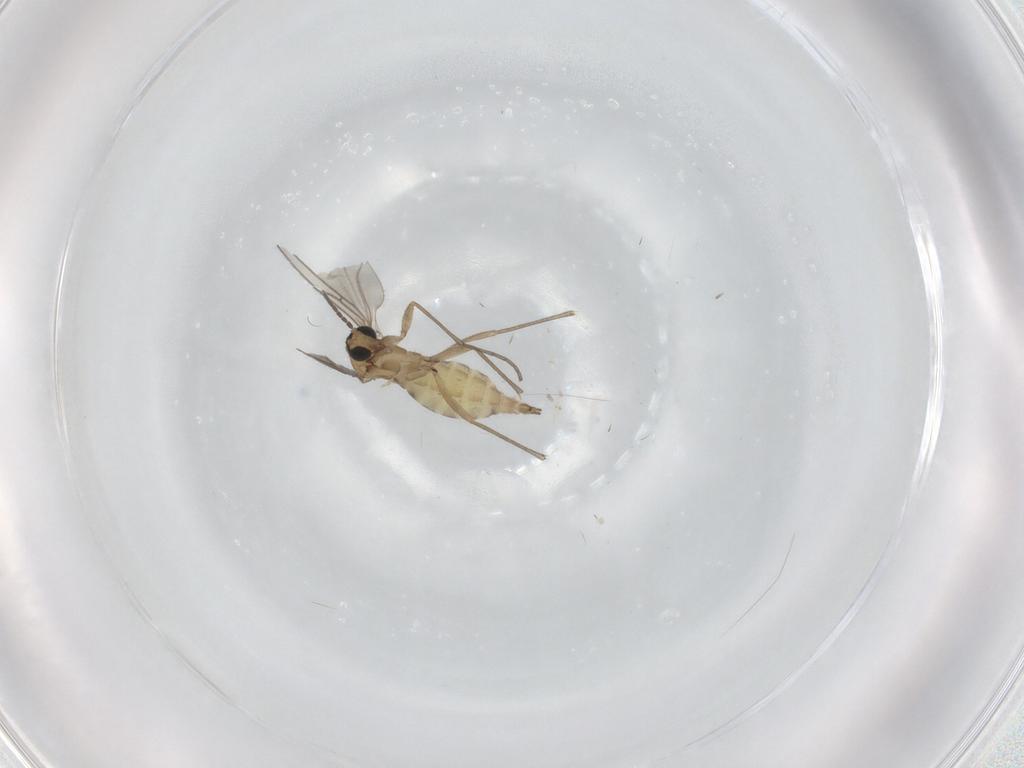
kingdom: Animalia
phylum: Arthropoda
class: Insecta
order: Diptera
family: Sciaridae
